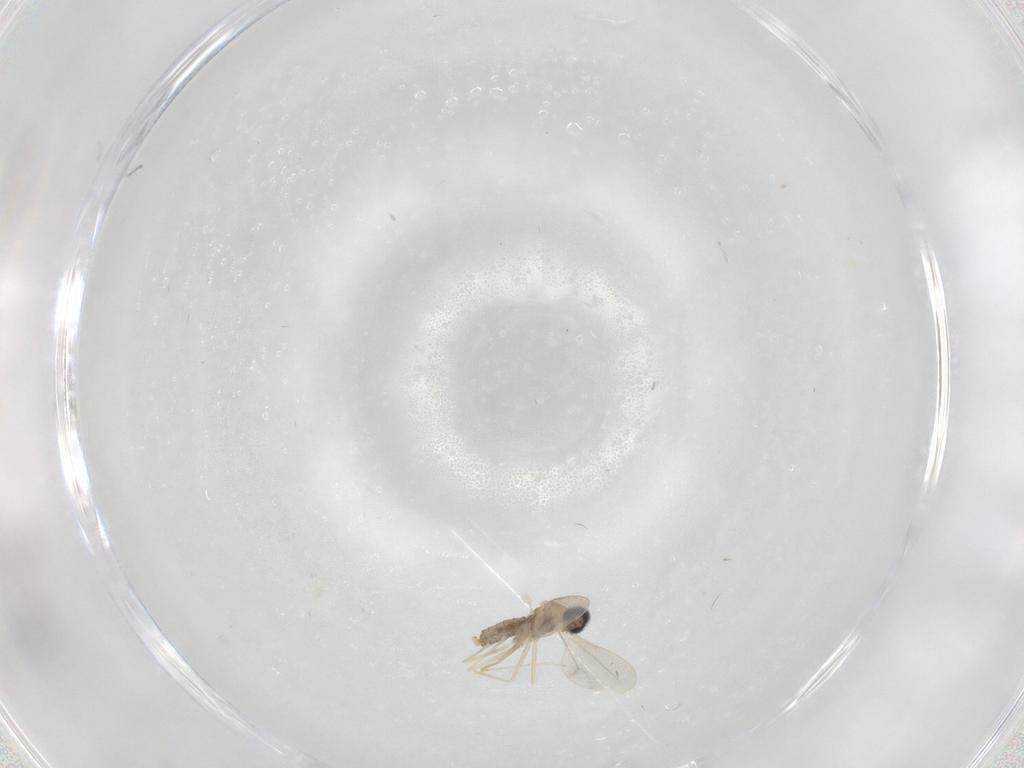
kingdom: Animalia
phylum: Arthropoda
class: Insecta
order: Diptera
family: Cecidomyiidae
